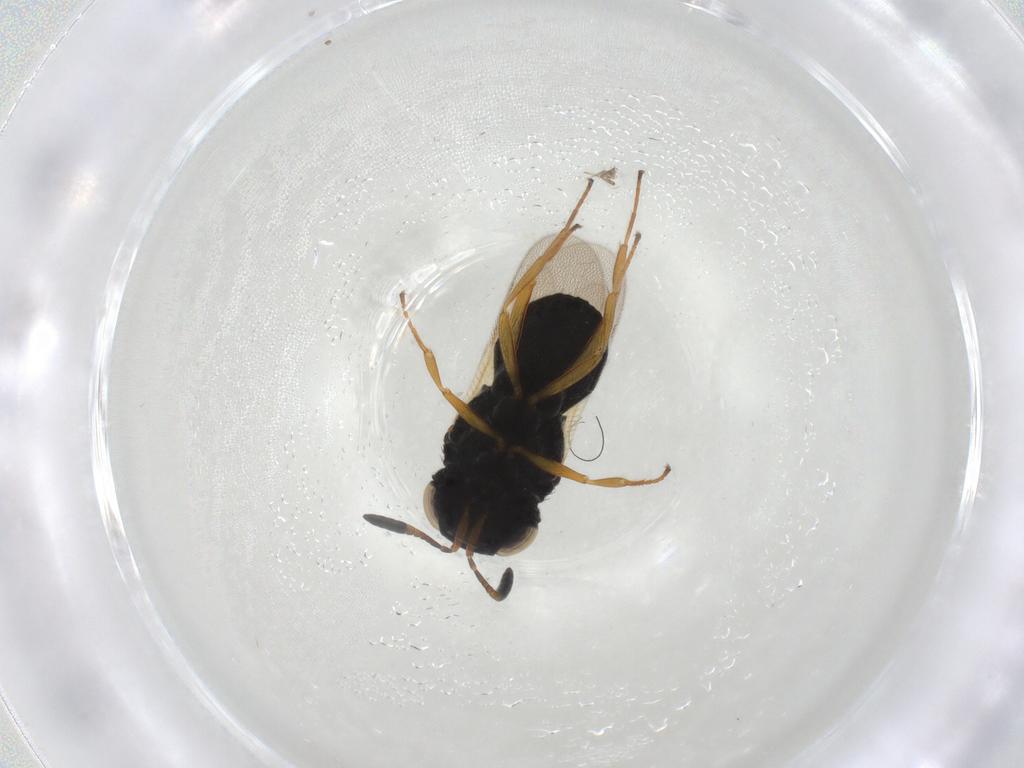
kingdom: Animalia
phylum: Arthropoda
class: Insecta
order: Hymenoptera
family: Scelionidae
